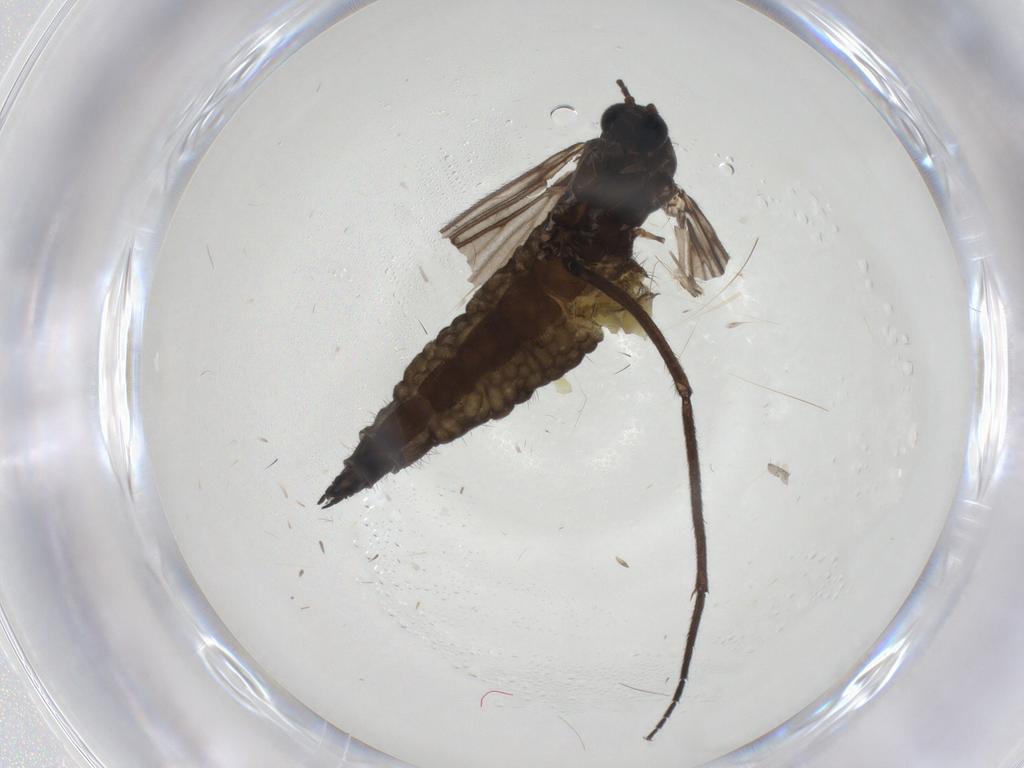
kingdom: Animalia
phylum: Arthropoda
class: Insecta
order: Diptera
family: Sciaridae
